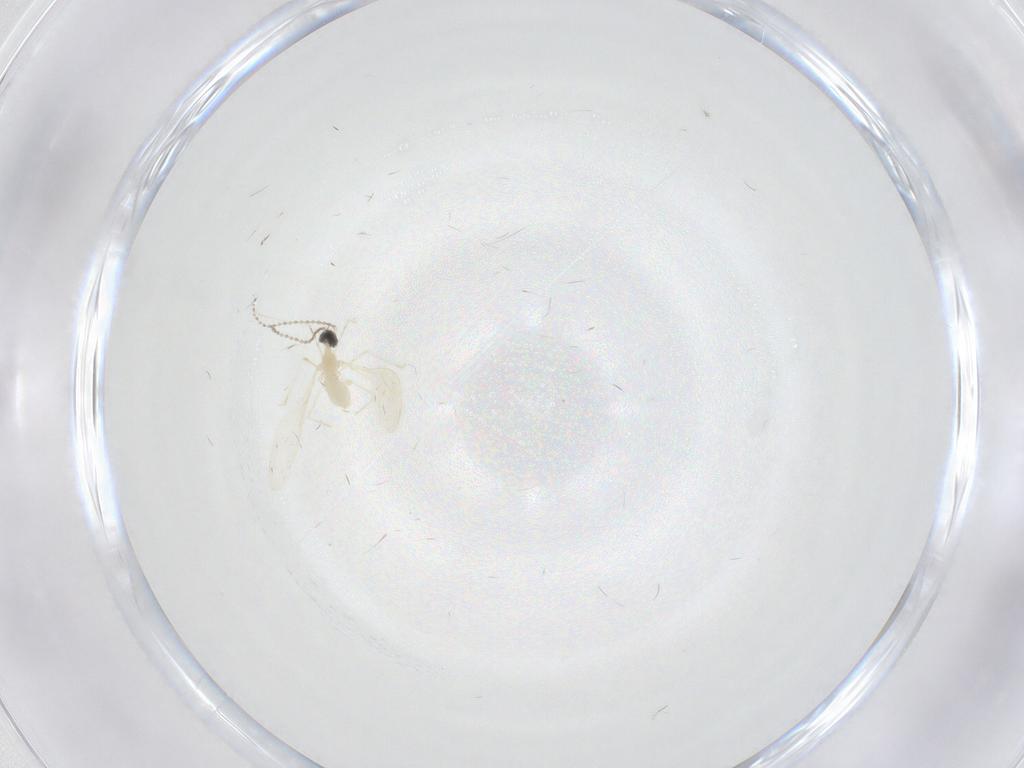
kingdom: Animalia
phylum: Arthropoda
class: Insecta
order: Diptera
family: Cecidomyiidae
